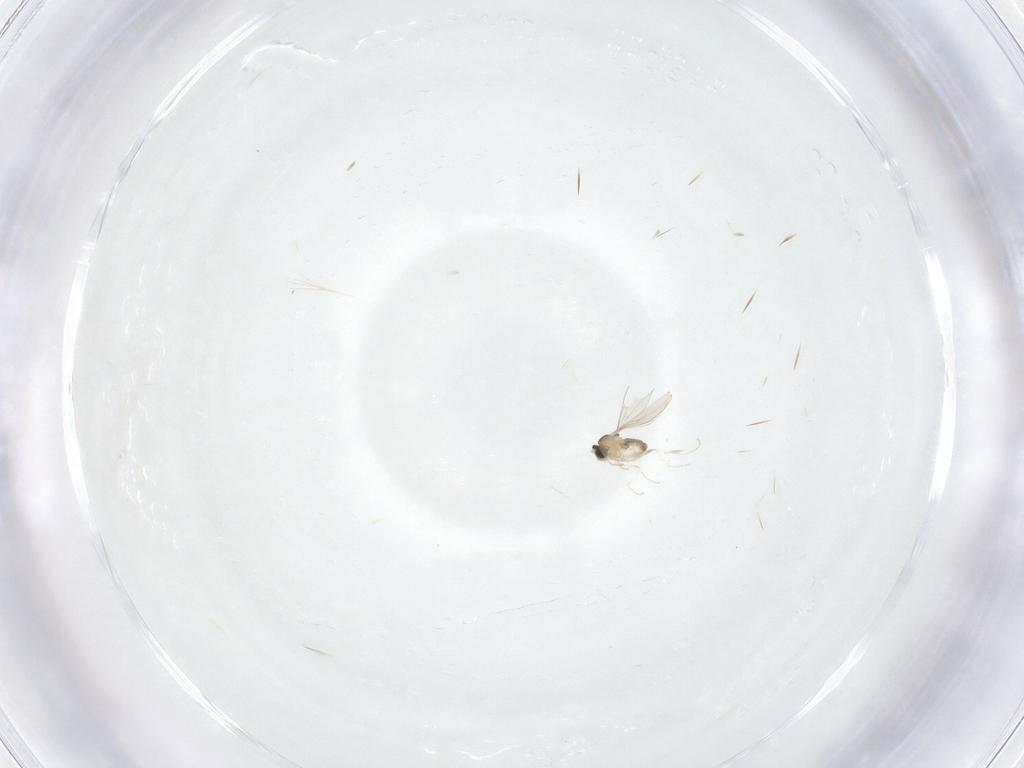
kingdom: Animalia
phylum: Arthropoda
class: Insecta
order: Diptera
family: Cecidomyiidae
